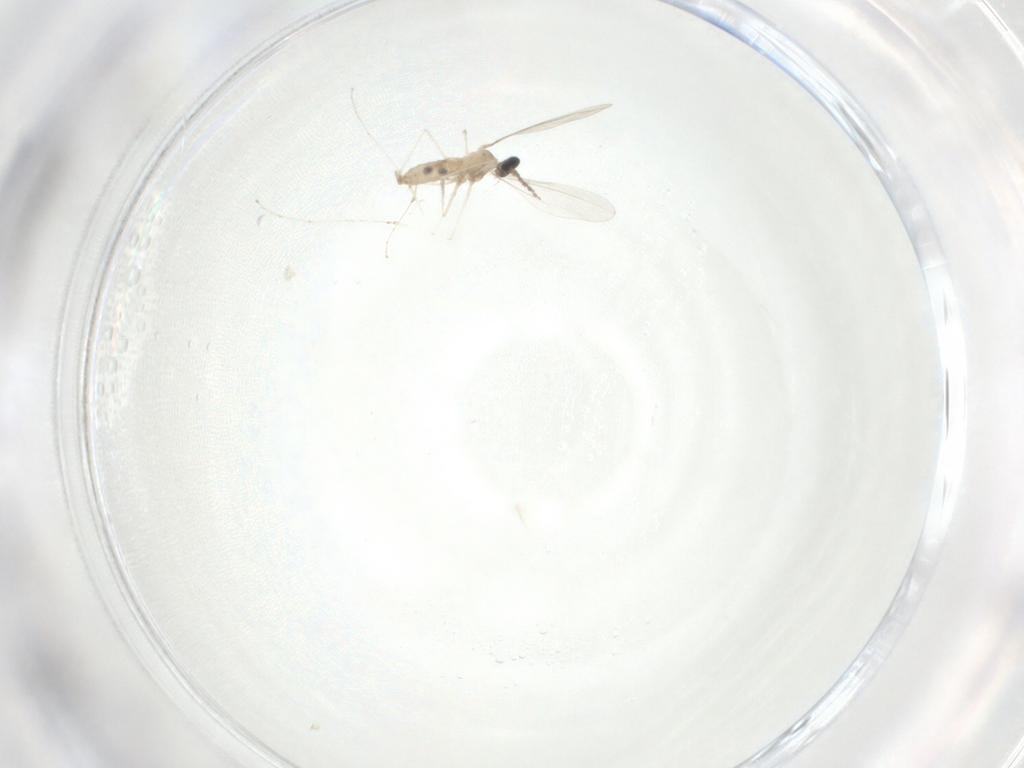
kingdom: Animalia
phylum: Arthropoda
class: Insecta
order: Diptera
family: Cecidomyiidae
